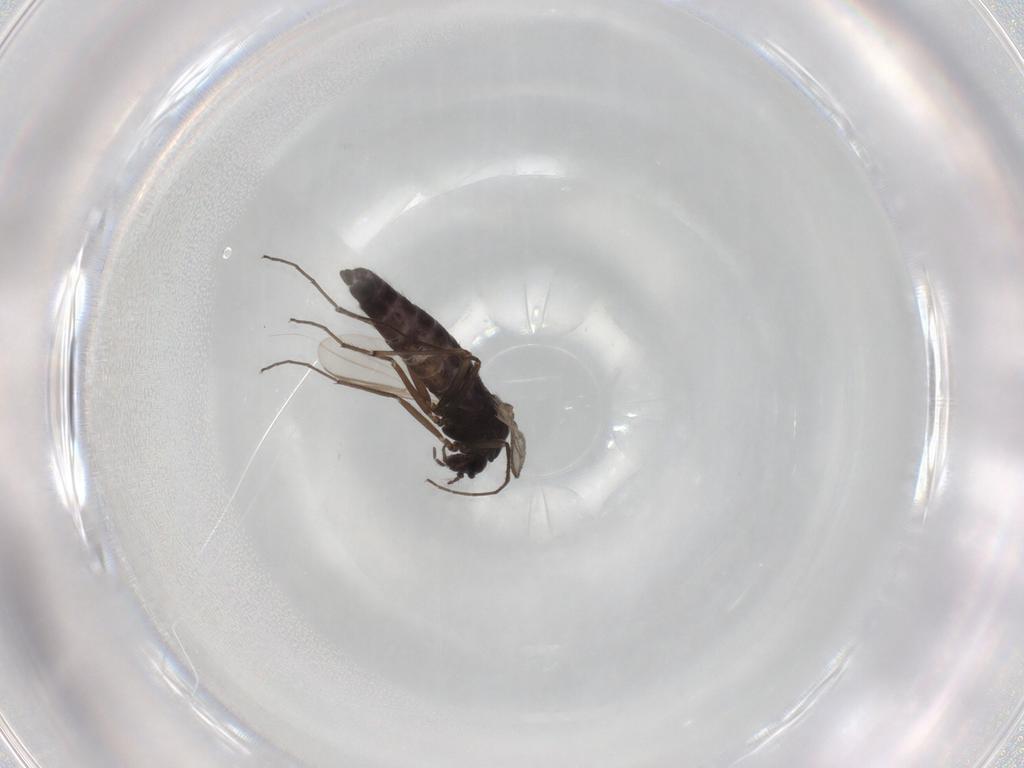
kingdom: Animalia
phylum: Arthropoda
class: Insecta
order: Diptera
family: Chironomidae
